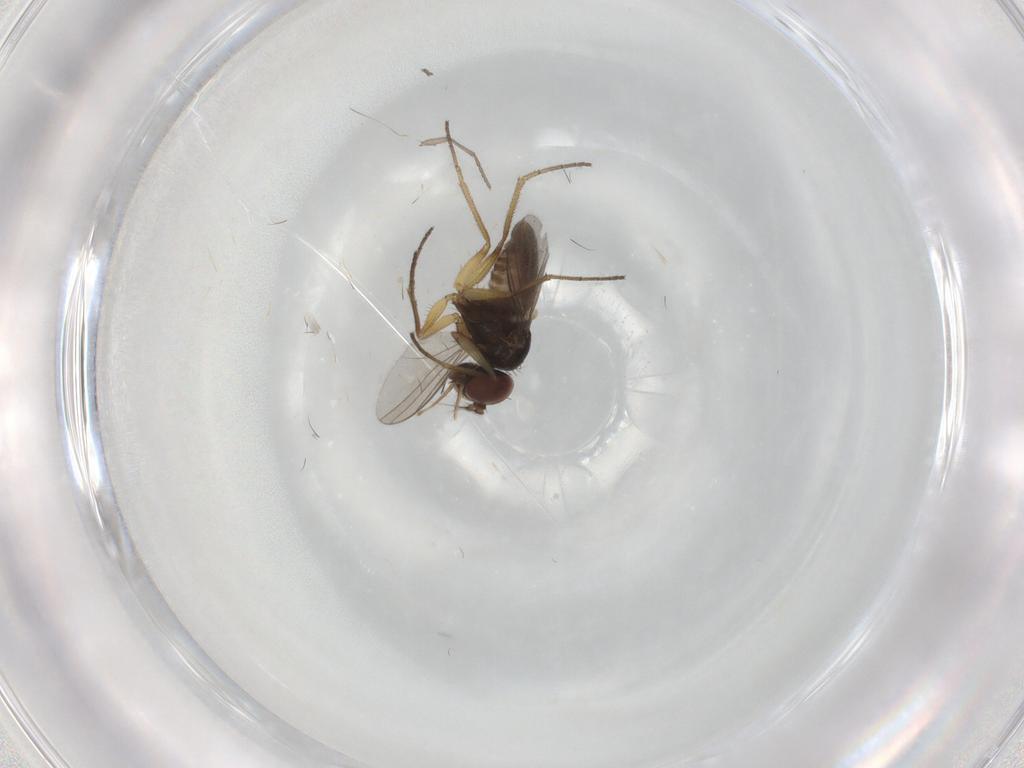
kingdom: Animalia
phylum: Arthropoda
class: Insecta
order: Diptera
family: Dolichopodidae
